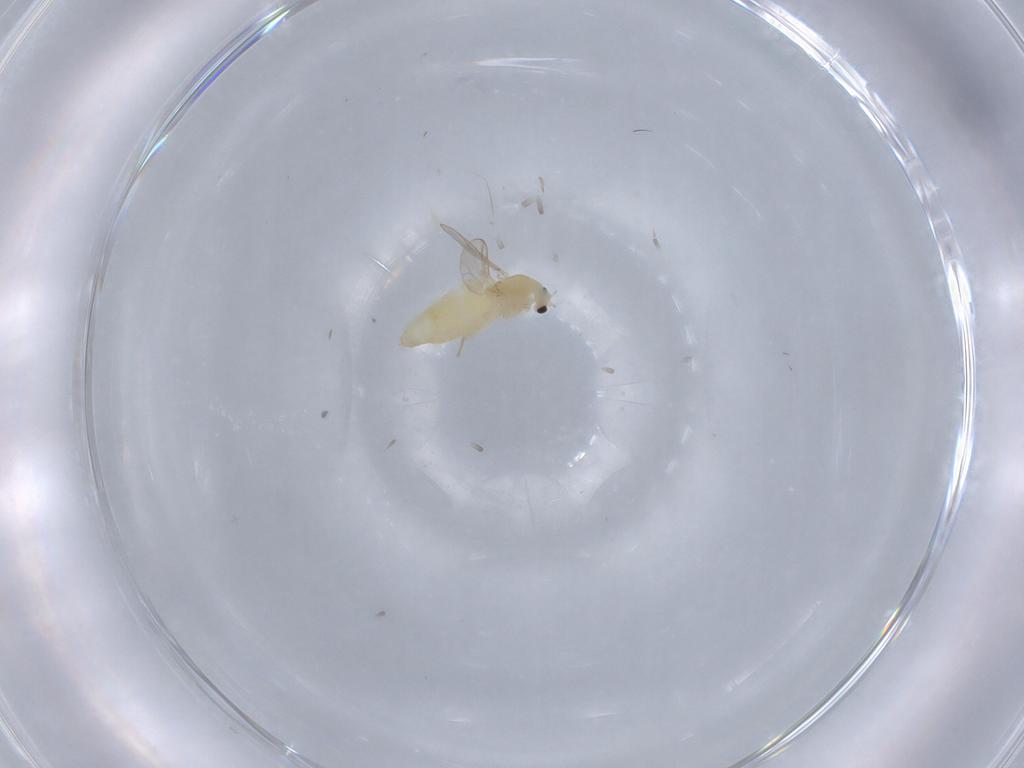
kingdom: Animalia
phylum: Arthropoda
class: Insecta
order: Diptera
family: Chironomidae
